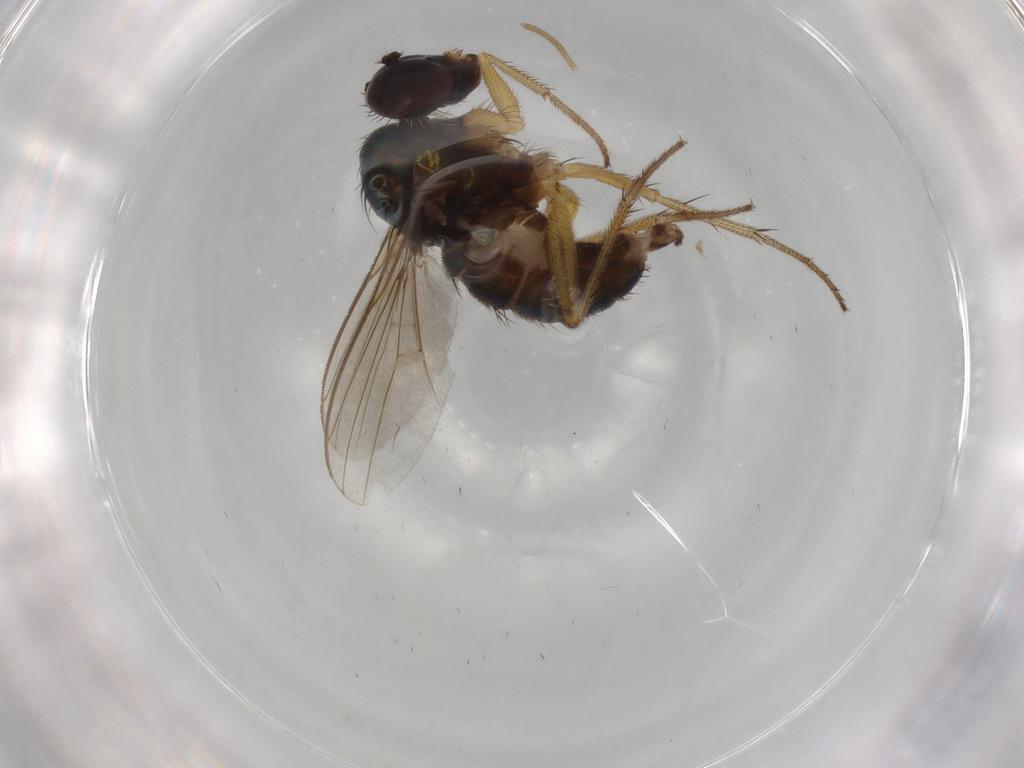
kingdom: Animalia
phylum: Arthropoda
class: Insecta
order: Diptera
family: Dolichopodidae
